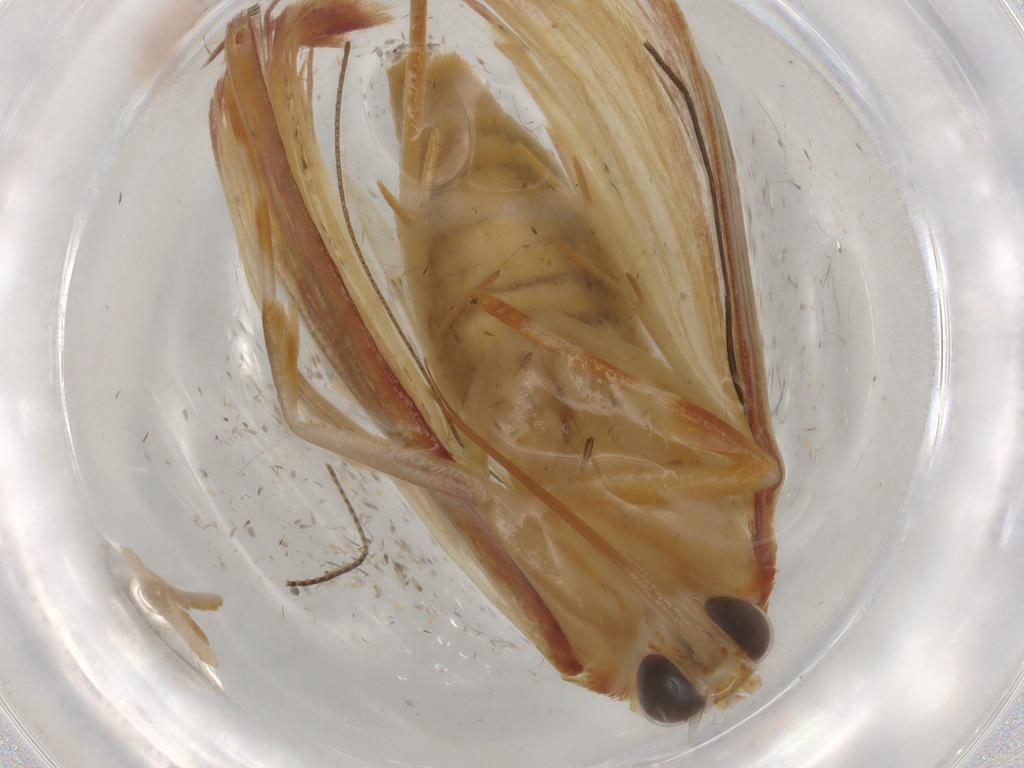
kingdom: Animalia
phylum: Arthropoda
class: Insecta
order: Lepidoptera
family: Crambidae
